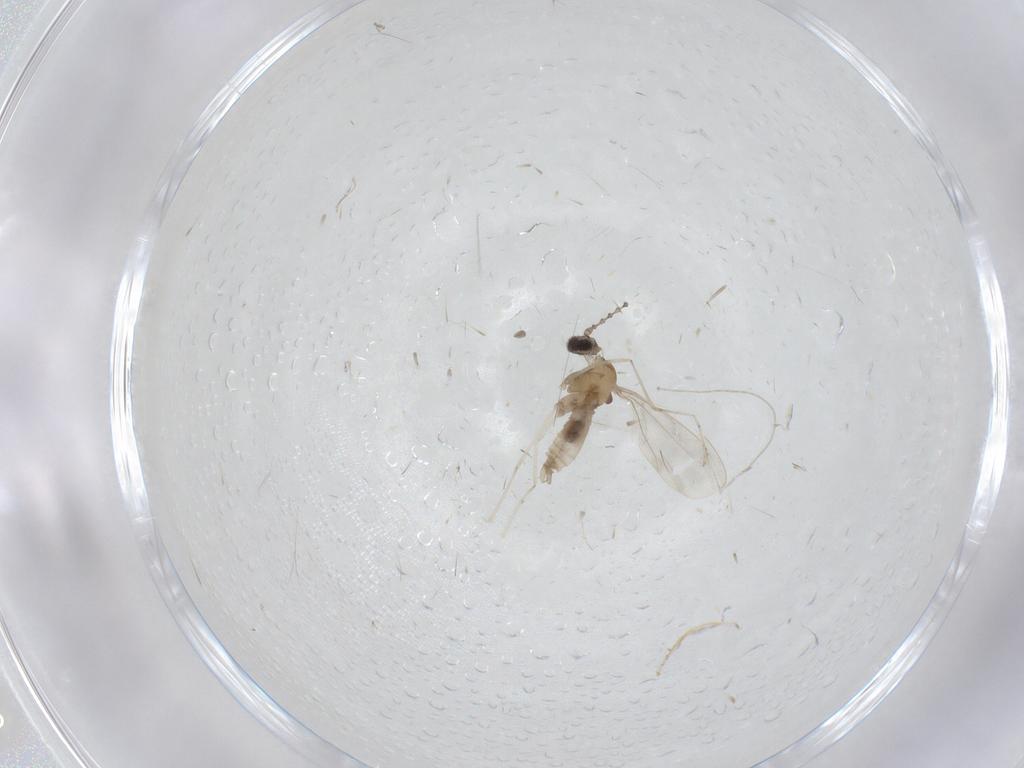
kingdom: Animalia
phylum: Arthropoda
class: Insecta
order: Diptera
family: Cecidomyiidae
